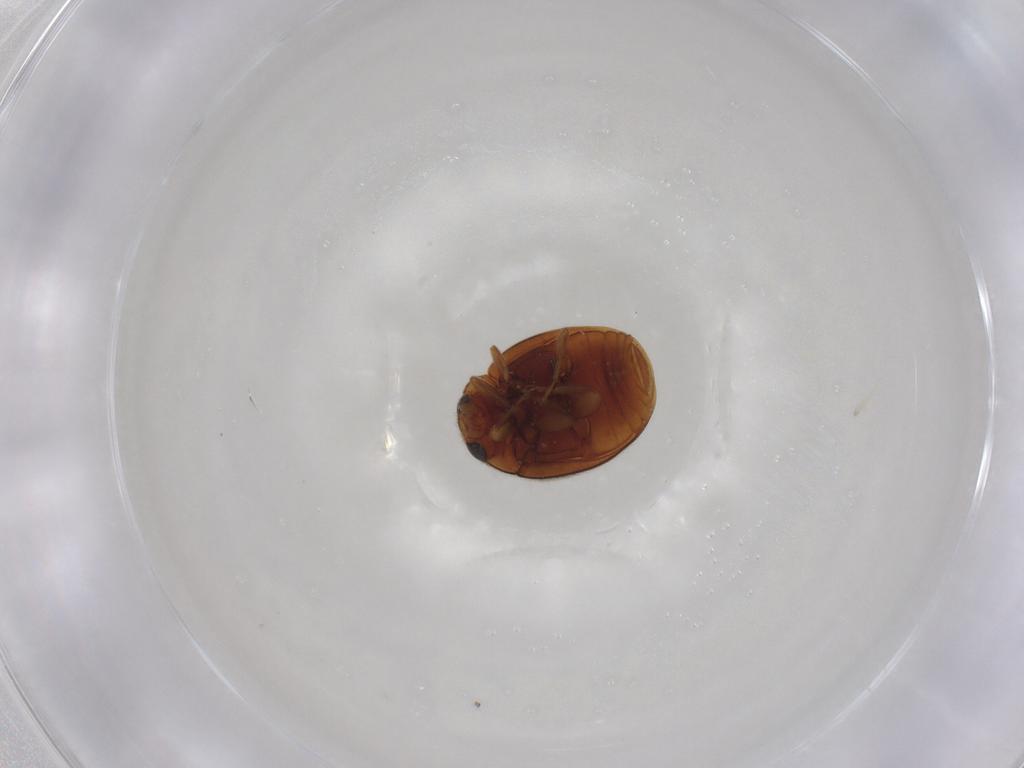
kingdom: Animalia
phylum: Arthropoda
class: Insecta
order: Coleoptera
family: Coccinellidae
